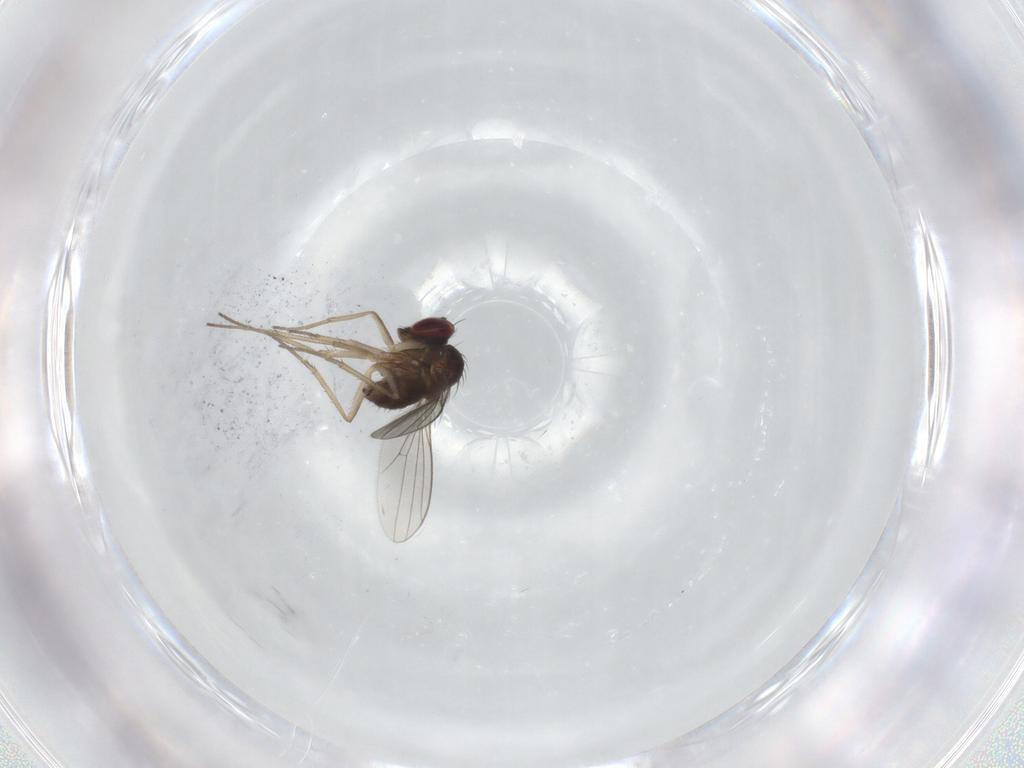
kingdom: Animalia
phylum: Arthropoda
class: Insecta
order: Diptera
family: Dolichopodidae
